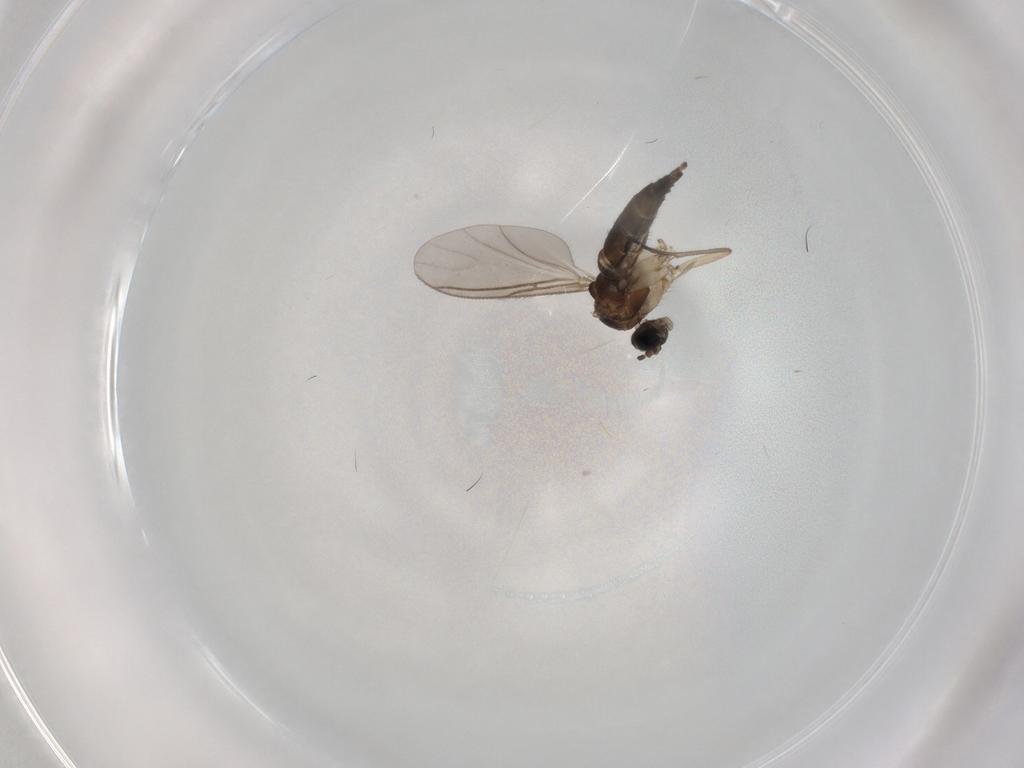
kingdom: Animalia
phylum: Arthropoda
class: Insecta
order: Diptera
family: Sciaridae
